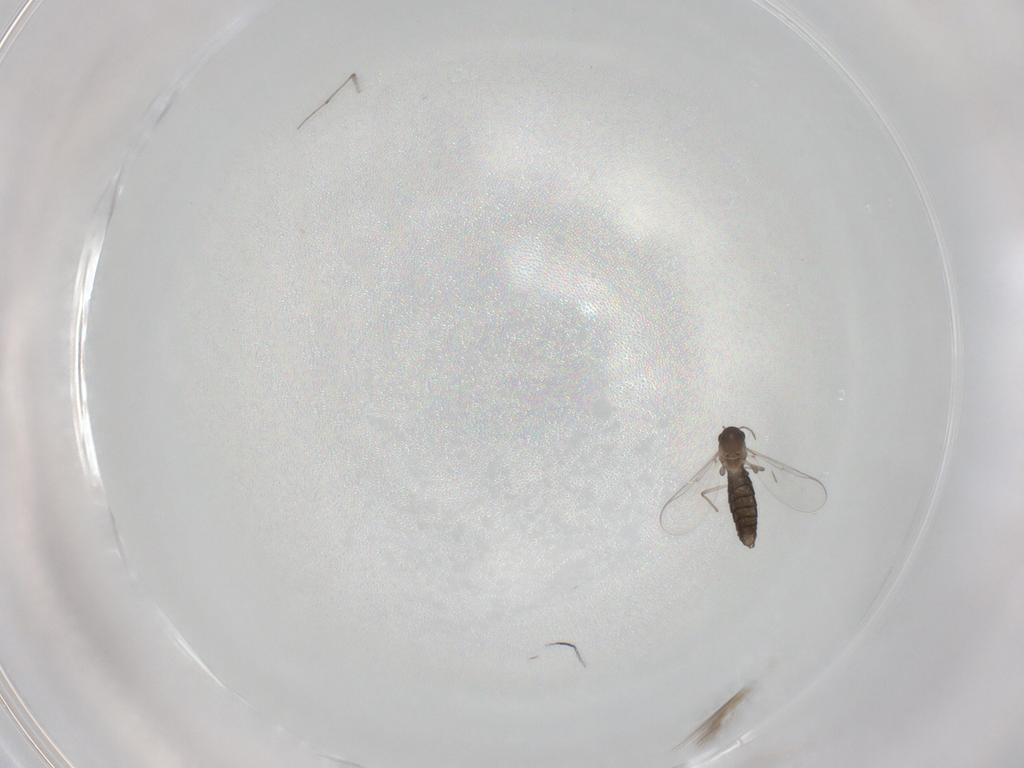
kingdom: Animalia
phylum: Arthropoda
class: Insecta
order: Diptera
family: Chironomidae
